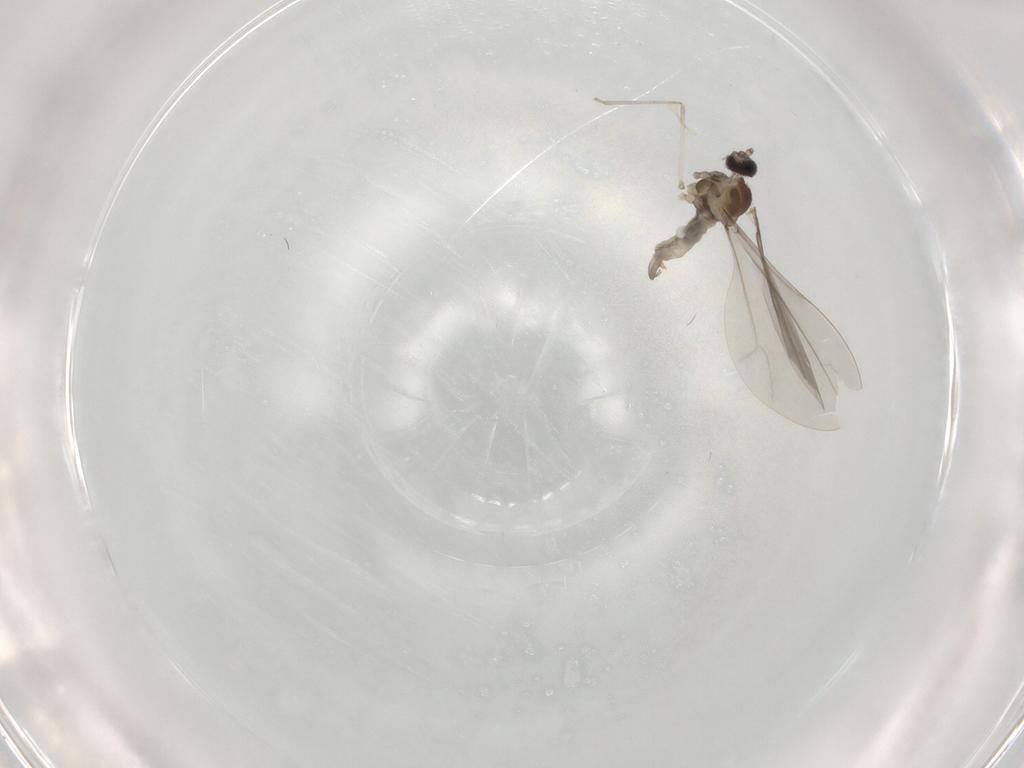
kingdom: Animalia
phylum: Arthropoda
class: Insecta
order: Diptera
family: Cecidomyiidae
